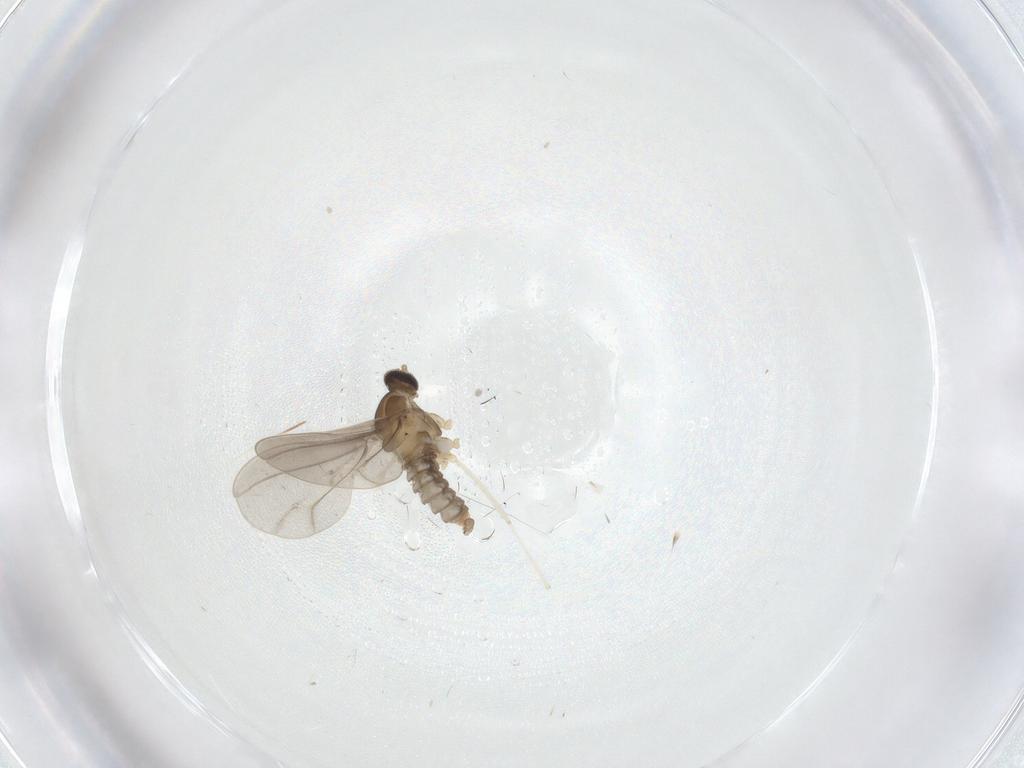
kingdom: Animalia
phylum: Arthropoda
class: Insecta
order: Diptera
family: Cecidomyiidae
